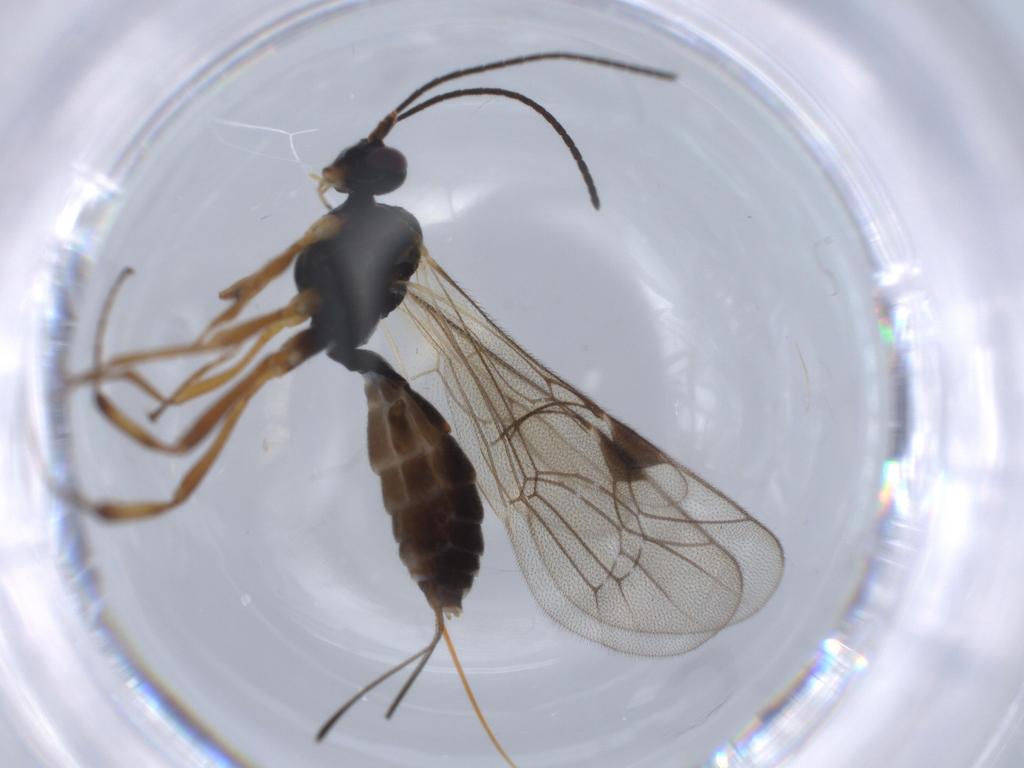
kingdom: Animalia
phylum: Arthropoda
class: Insecta
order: Hymenoptera
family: Ichneumonidae
